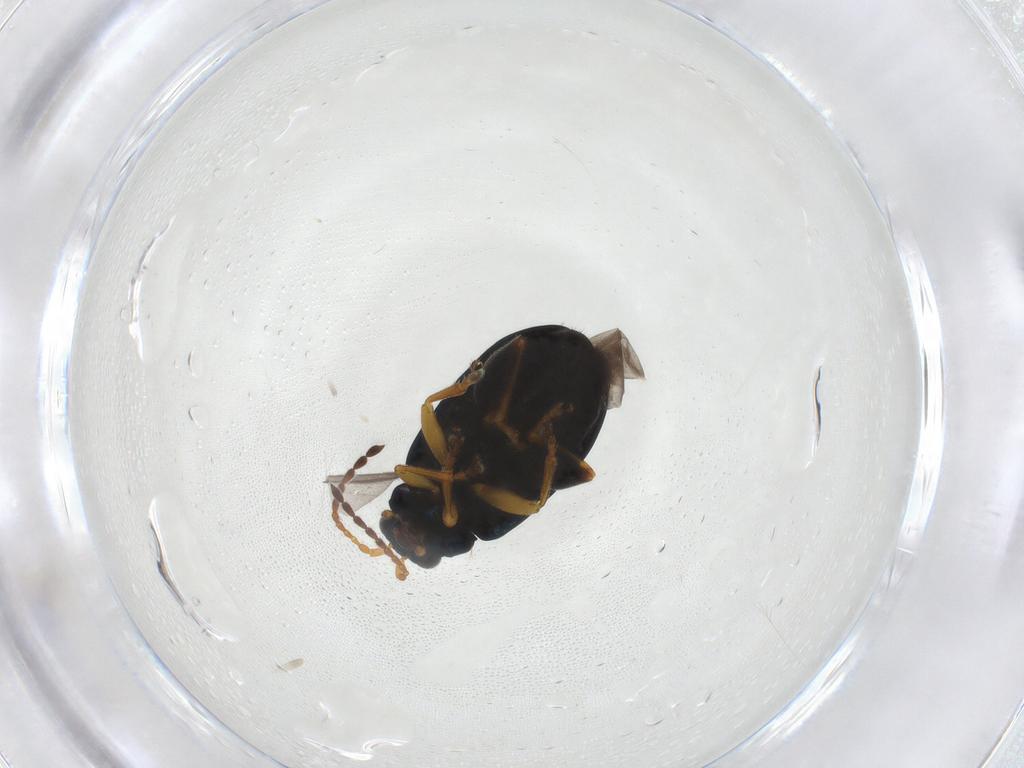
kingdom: Animalia
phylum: Arthropoda
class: Insecta
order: Coleoptera
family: Chrysomelidae
